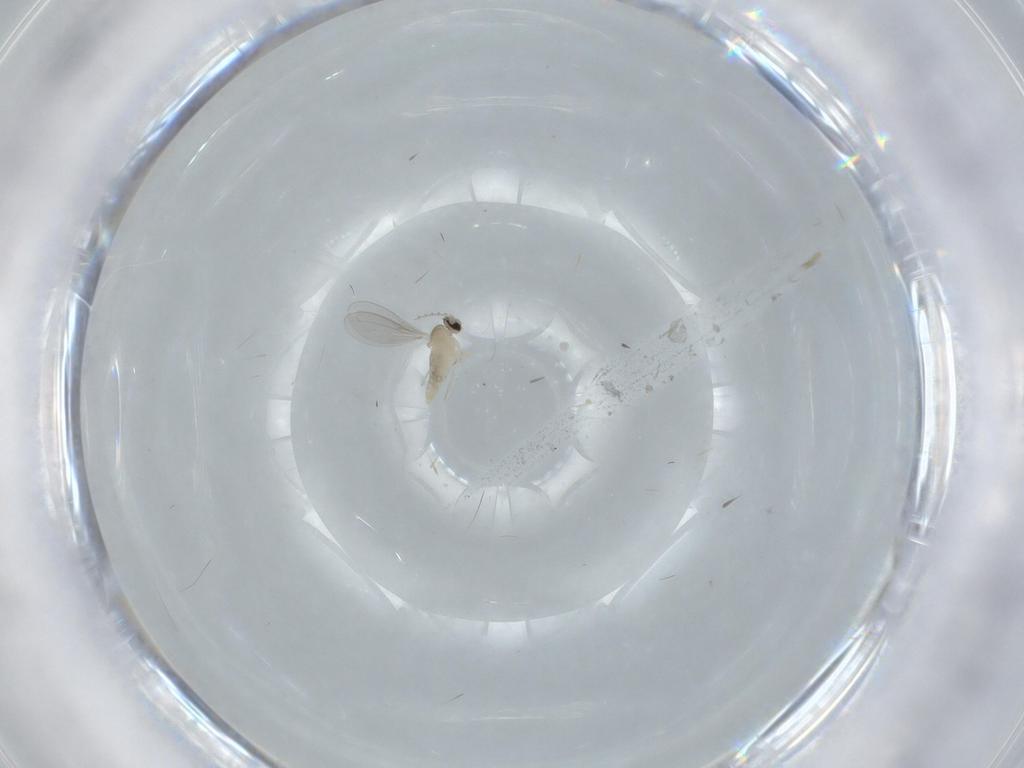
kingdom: Animalia
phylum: Arthropoda
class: Insecta
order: Diptera
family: Cecidomyiidae
